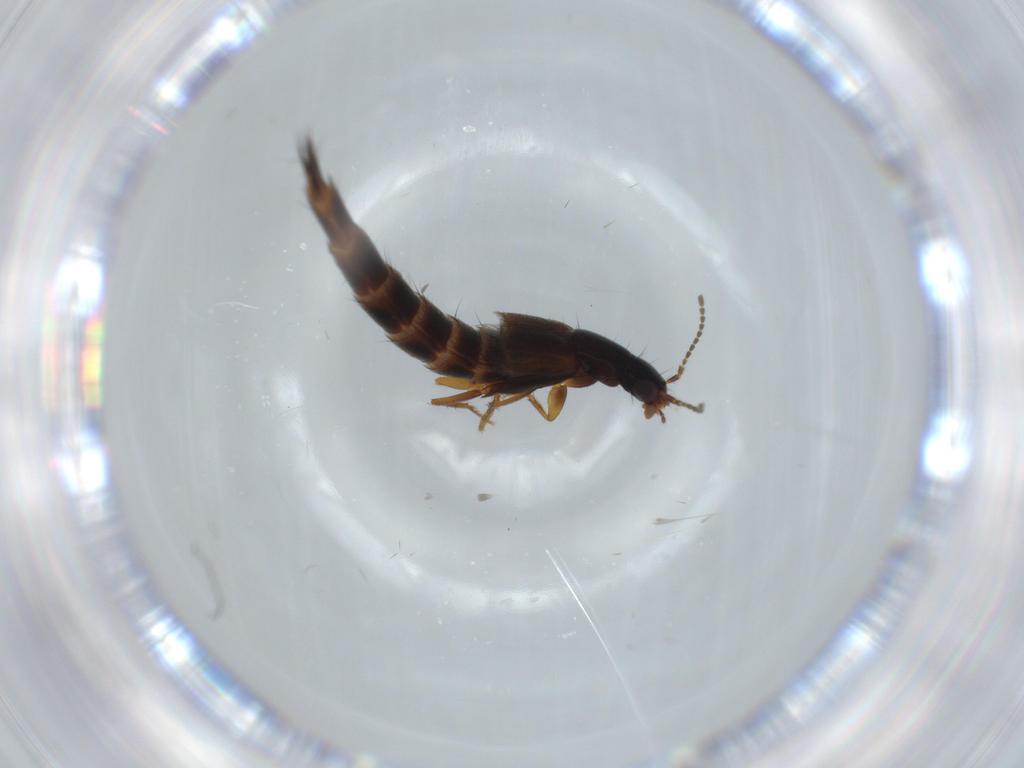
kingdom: Animalia
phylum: Arthropoda
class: Insecta
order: Coleoptera
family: Staphylinidae
